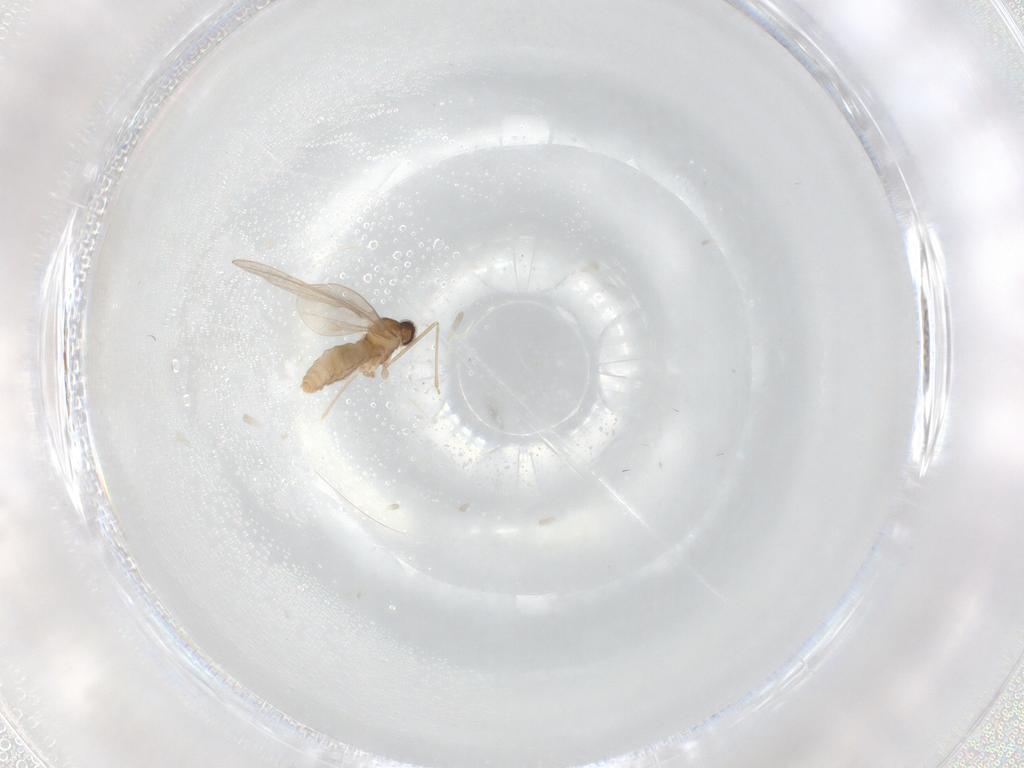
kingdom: Animalia
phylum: Arthropoda
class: Insecta
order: Diptera
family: Cecidomyiidae
